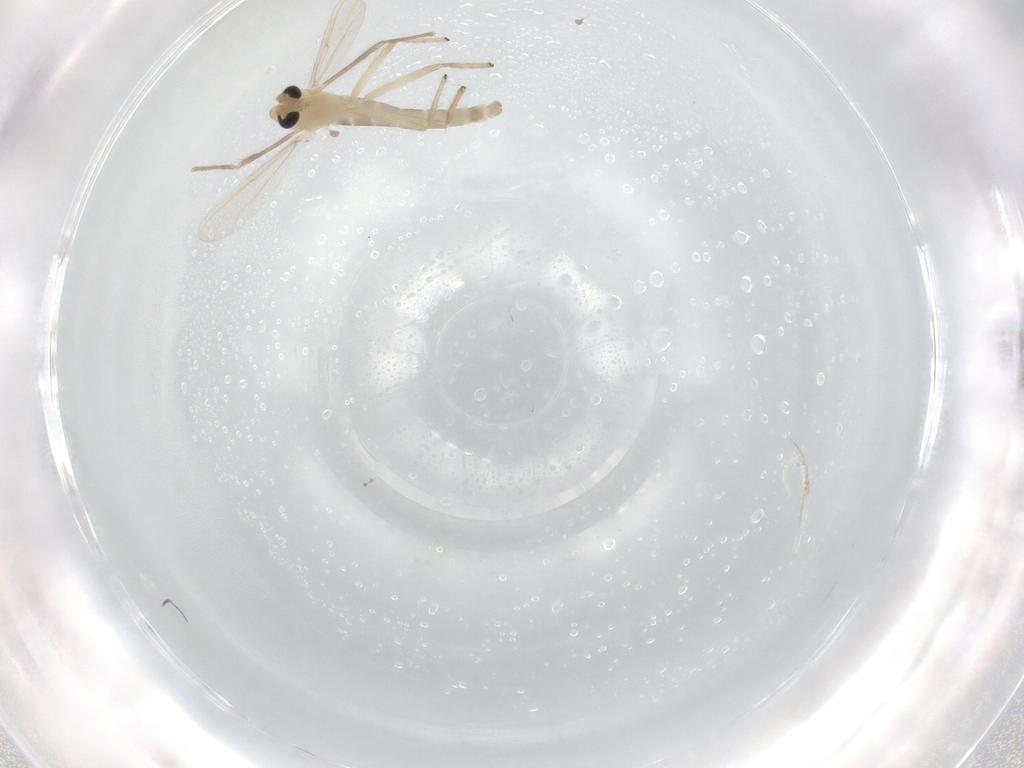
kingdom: Animalia
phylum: Arthropoda
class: Insecta
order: Diptera
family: Chironomidae
